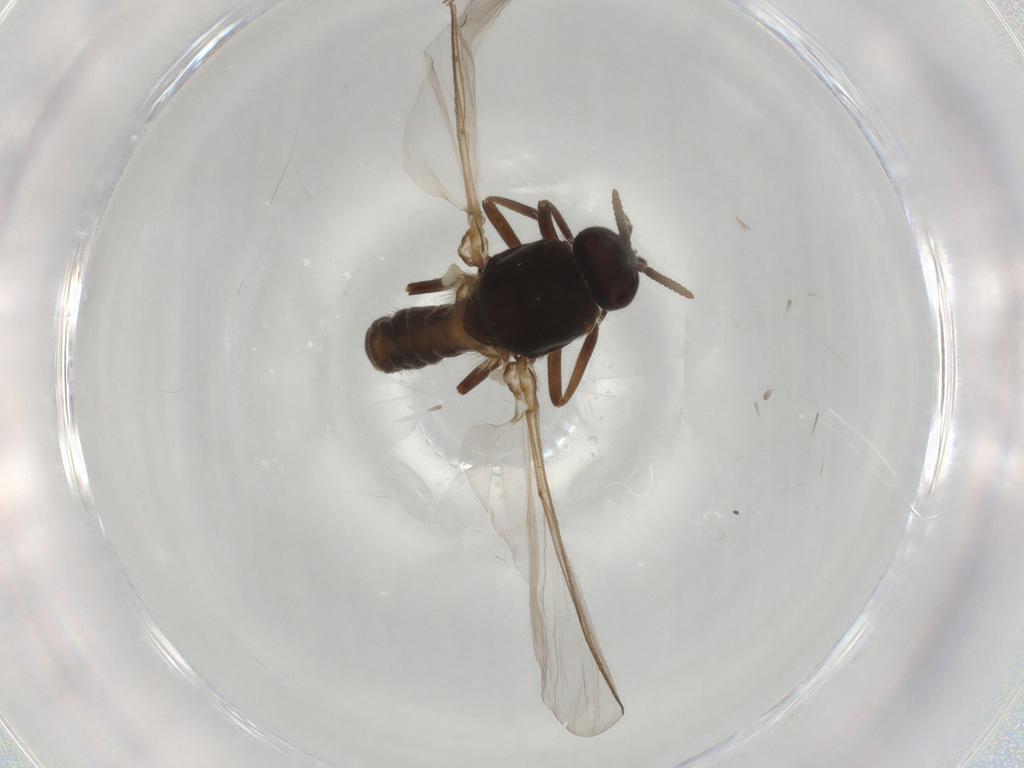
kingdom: Animalia
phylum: Arthropoda
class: Insecta
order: Diptera
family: Simuliidae
